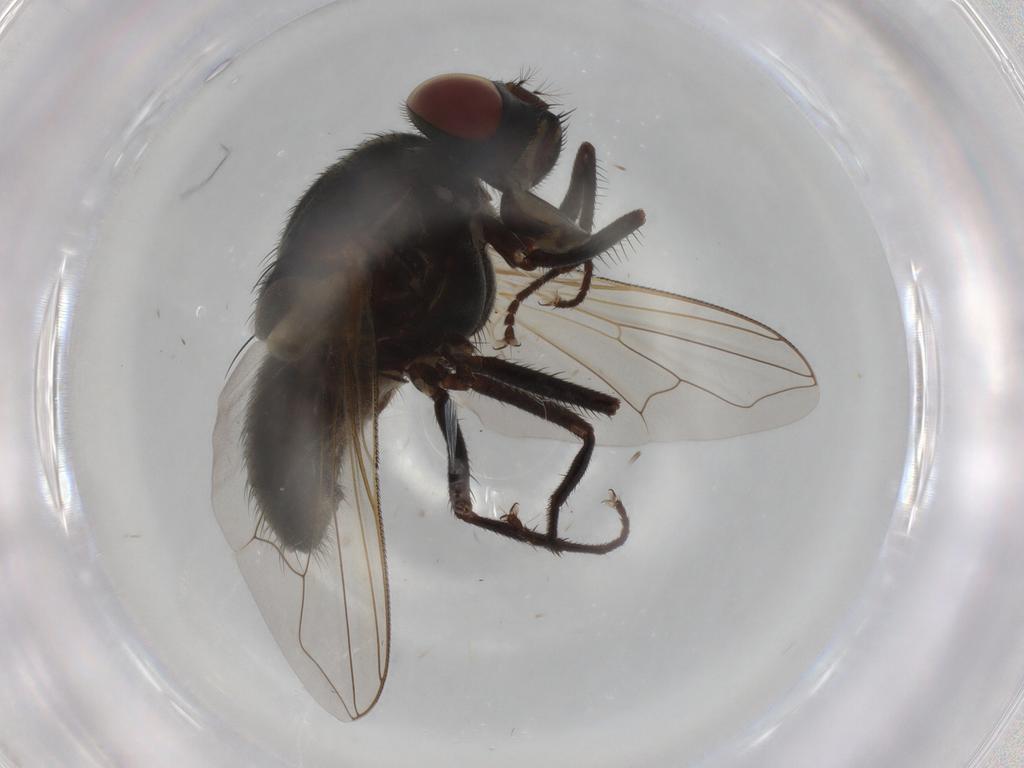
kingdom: Animalia
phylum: Arthropoda
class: Insecta
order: Diptera
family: Muscidae
